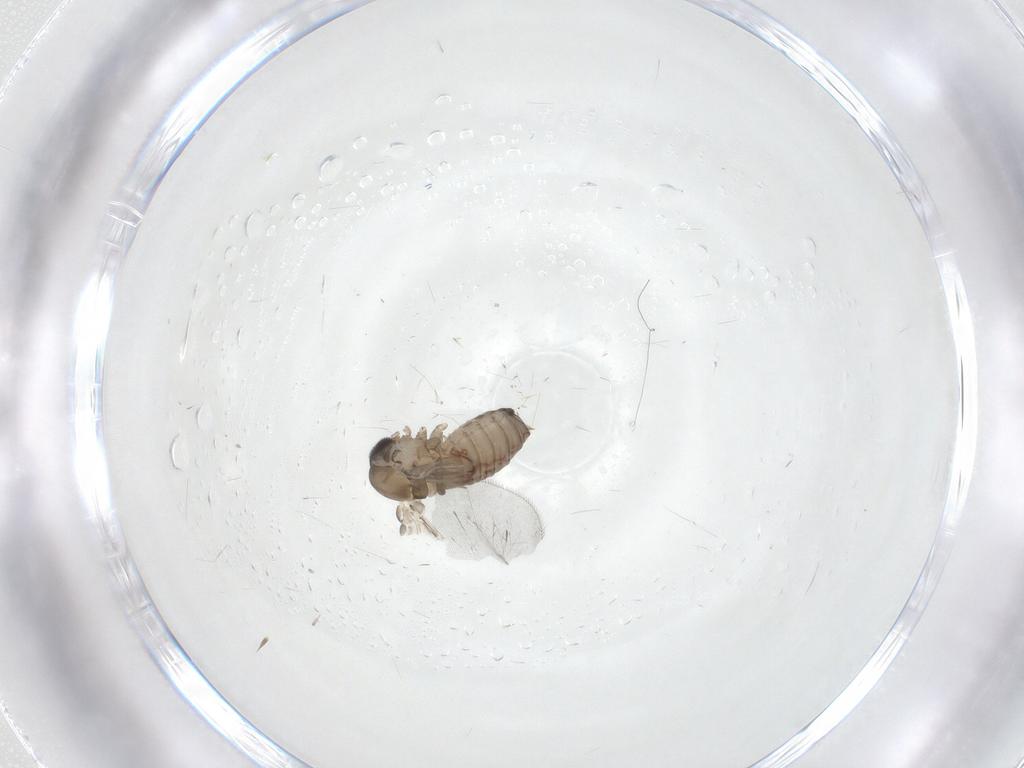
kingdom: Animalia
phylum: Arthropoda
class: Insecta
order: Diptera
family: Psychodidae
